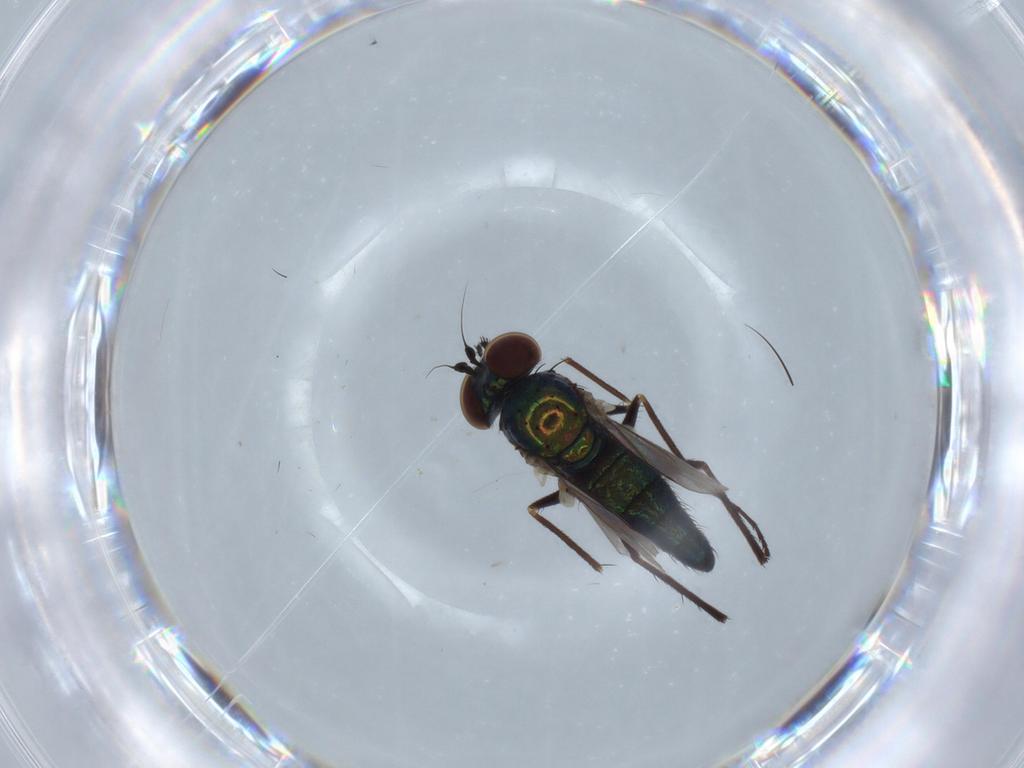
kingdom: Animalia
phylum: Arthropoda
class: Insecta
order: Diptera
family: Dolichopodidae
